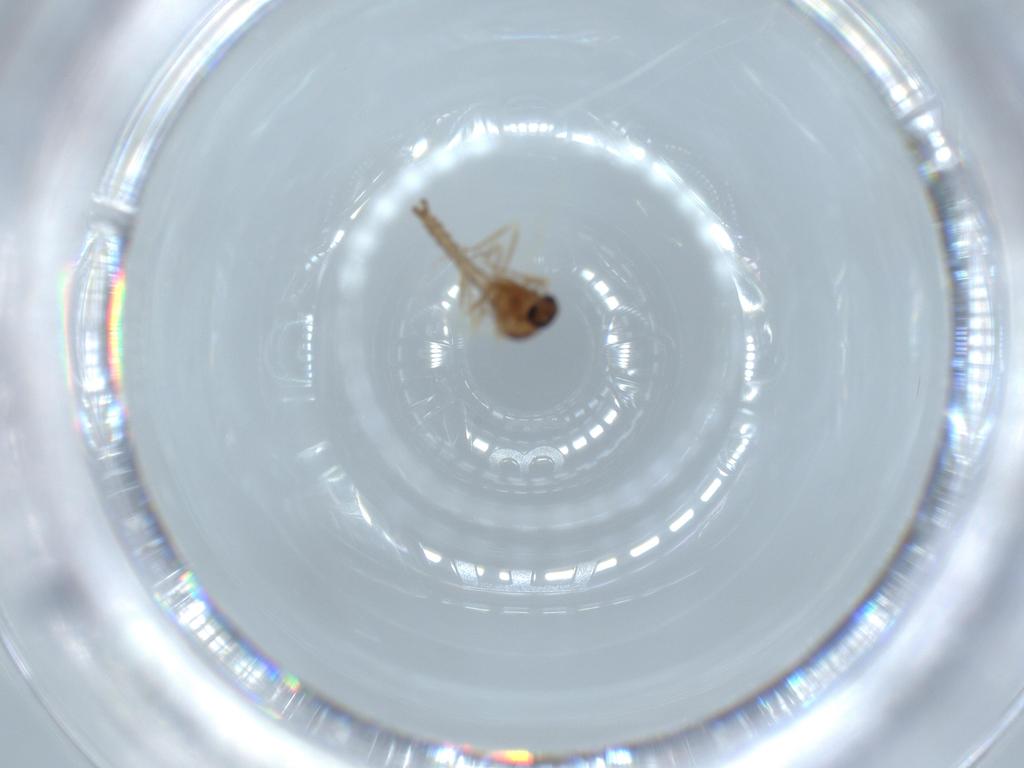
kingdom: Animalia
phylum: Arthropoda
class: Insecta
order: Diptera
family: Ceratopogonidae
